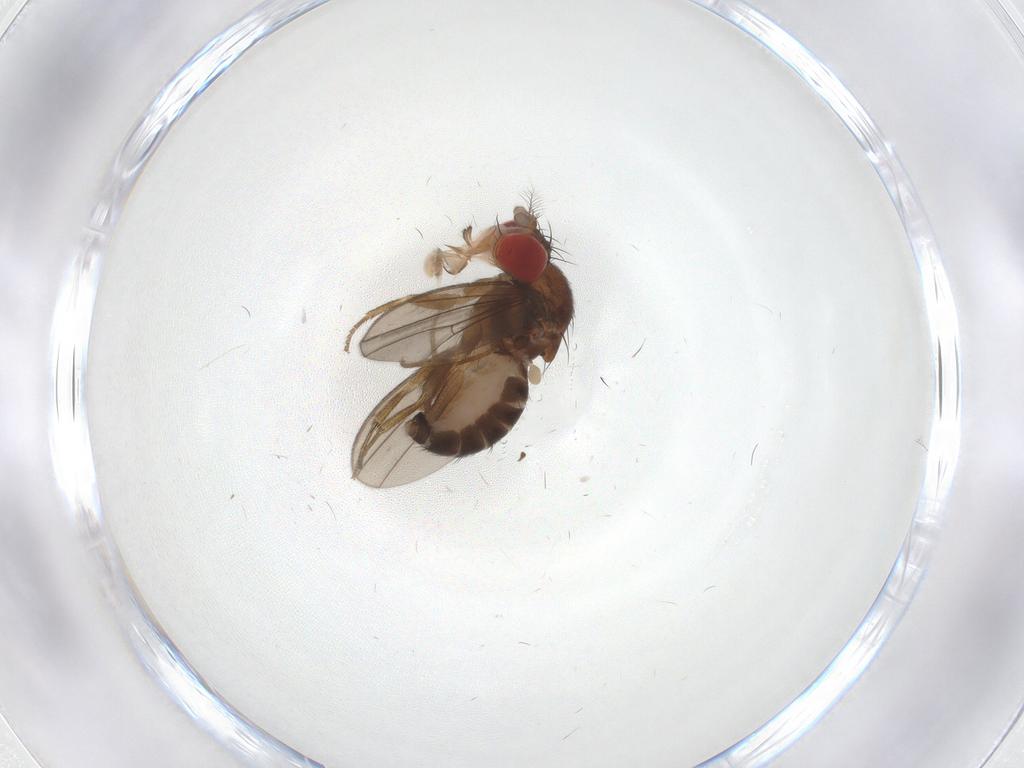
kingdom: Animalia
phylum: Arthropoda
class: Insecta
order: Diptera
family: Drosophilidae
